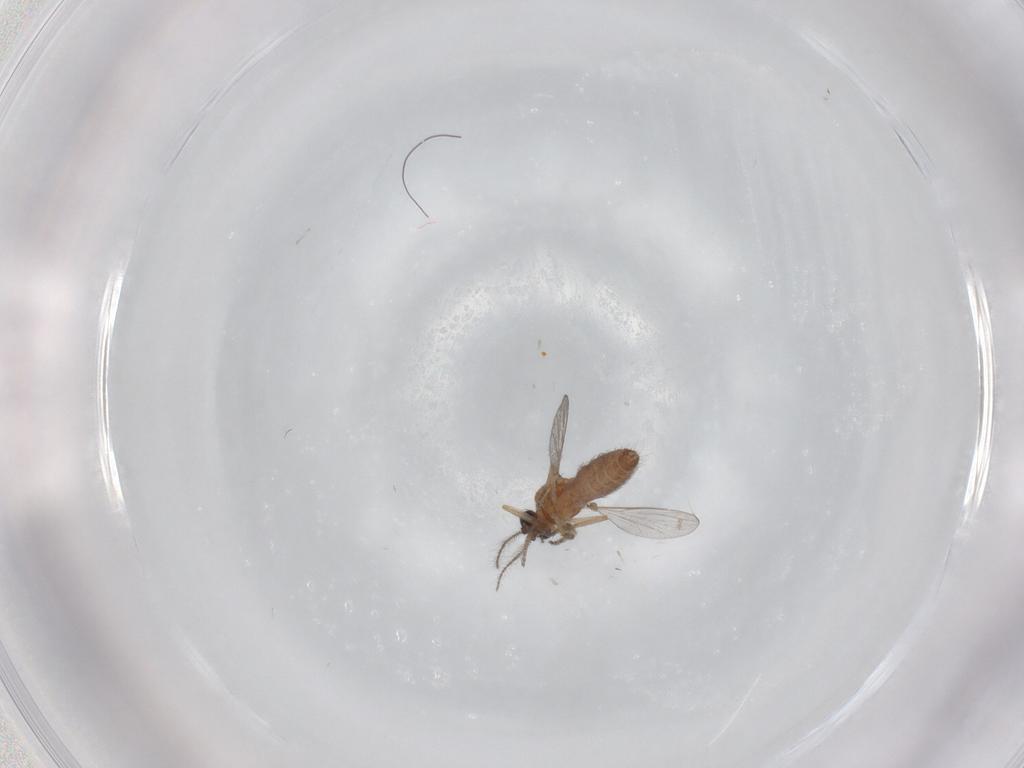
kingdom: Animalia
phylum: Arthropoda
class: Insecta
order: Diptera
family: Ceratopogonidae
